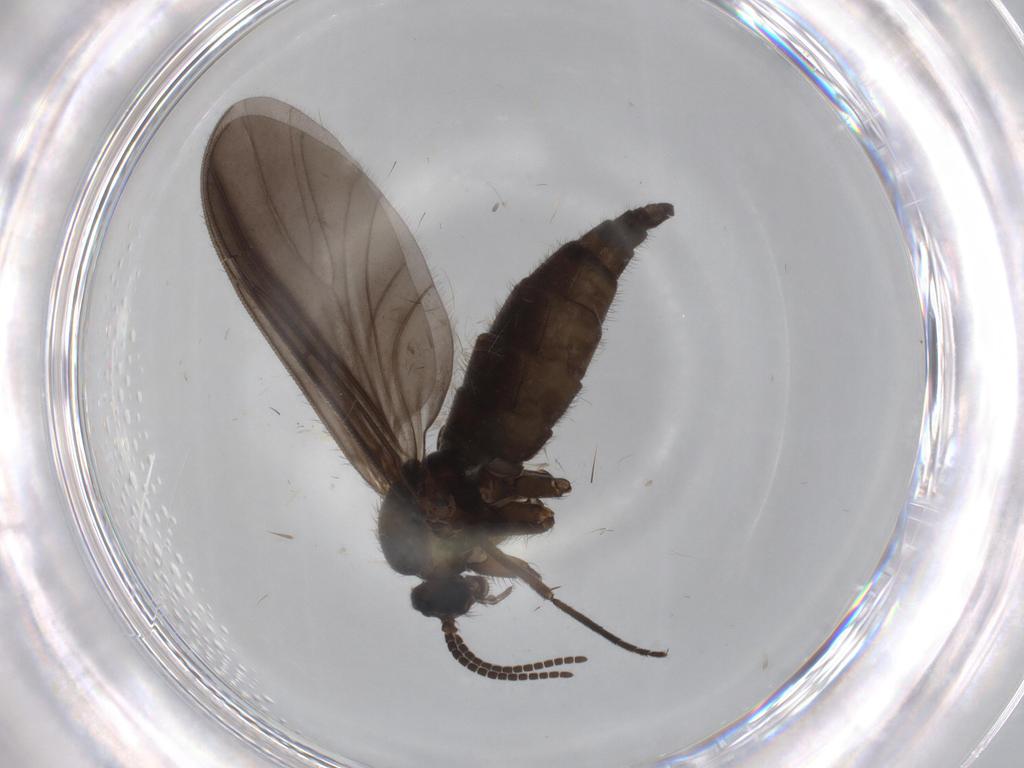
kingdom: Animalia
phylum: Arthropoda
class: Insecta
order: Diptera
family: Sciaridae
